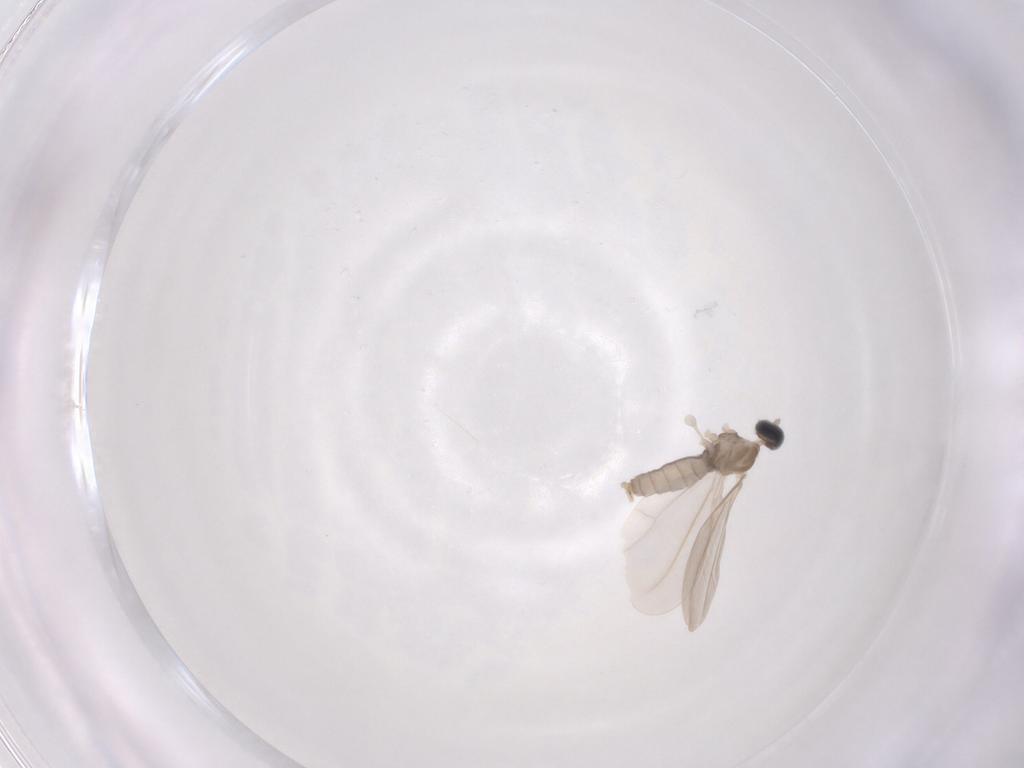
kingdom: Animalia
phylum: Arthropoda
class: Insecta
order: Diptera
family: Cecidomyiidae
